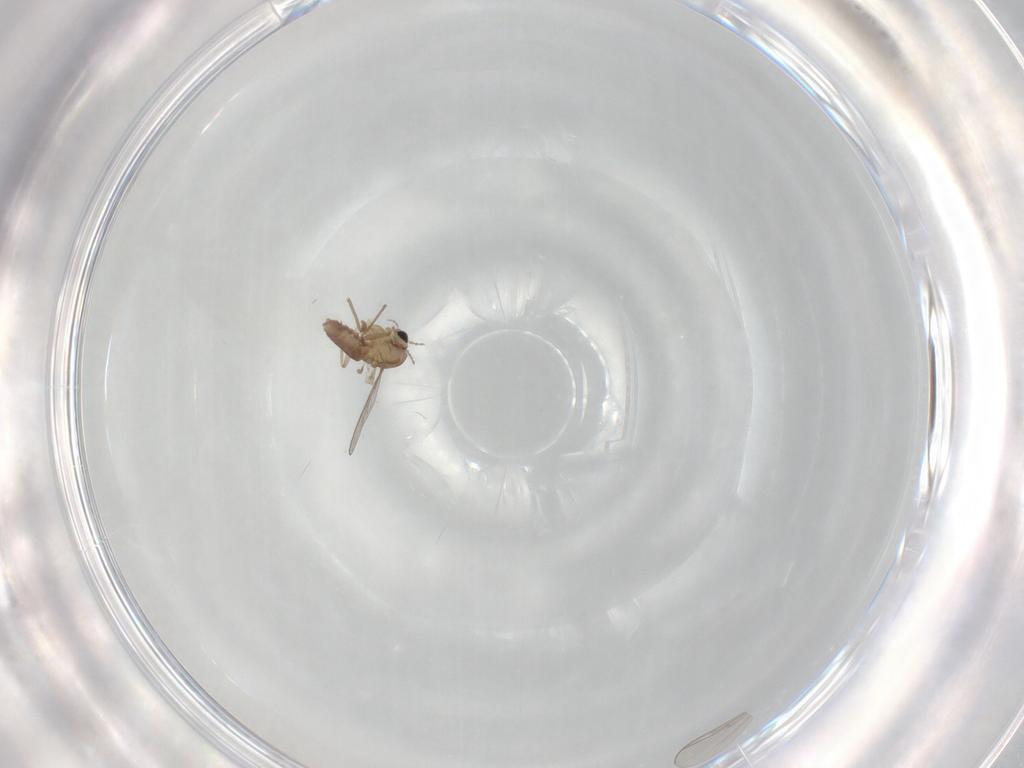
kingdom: Animalia
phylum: Arthropoda
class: Insecta
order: Diptera
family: Chironomidae
